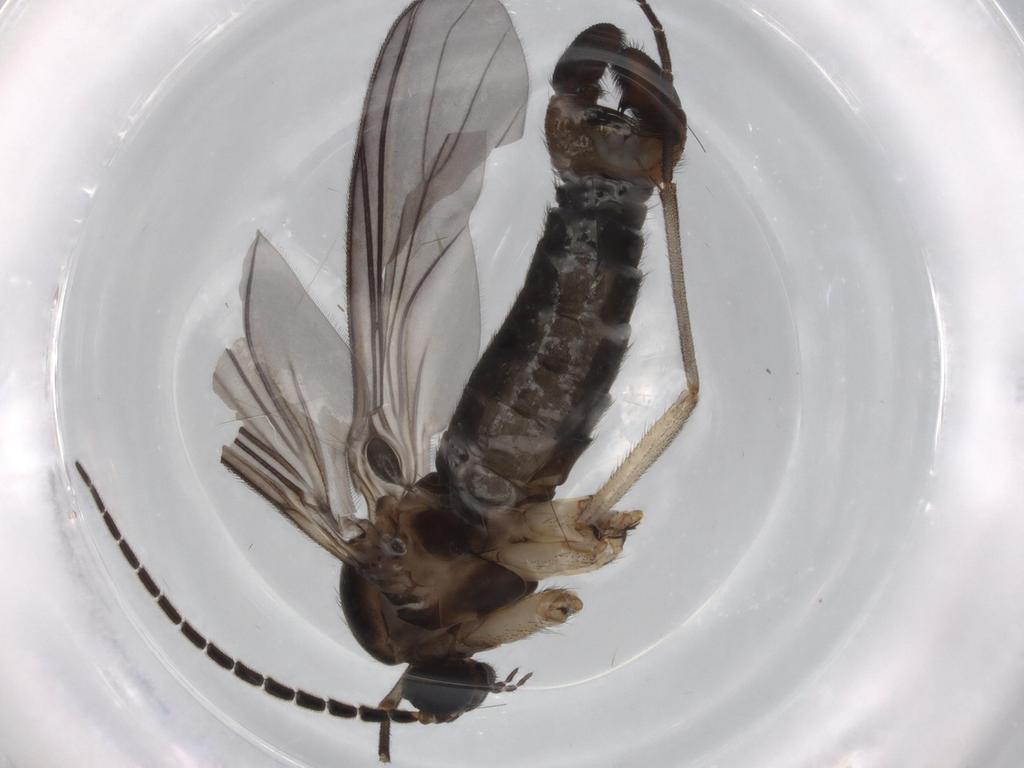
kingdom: Animalia
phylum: Arthropoda
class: Insecta
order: Diptera
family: Sciaridae
